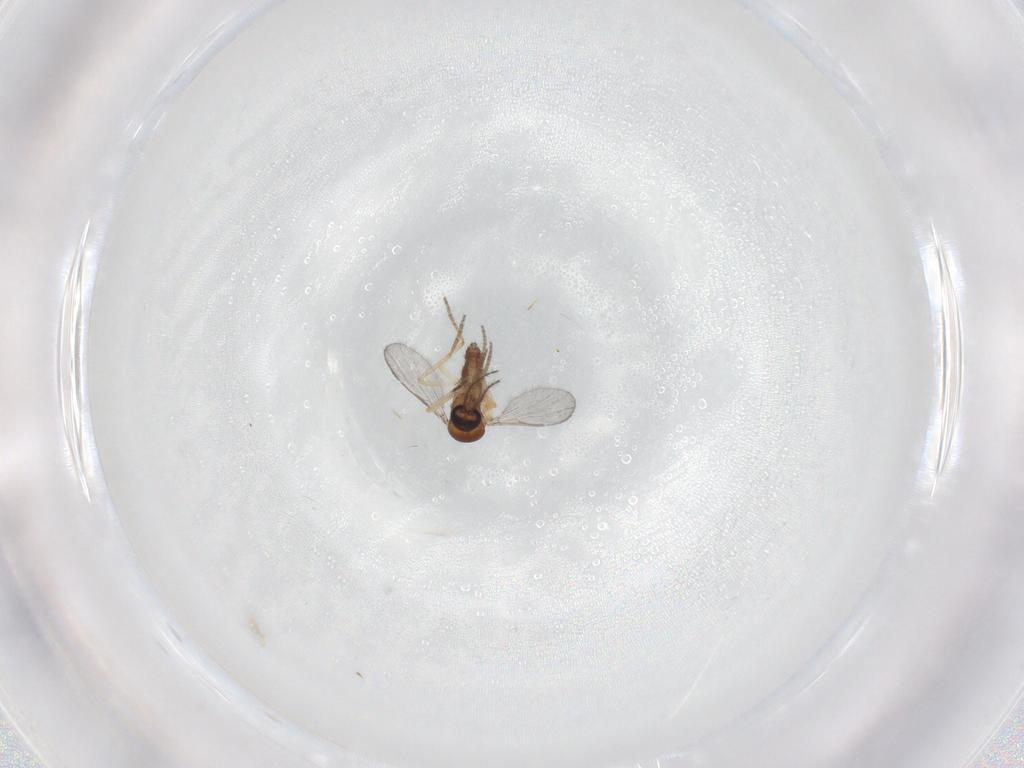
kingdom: Animalia
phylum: Arthropoda
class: Insecta
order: Diptera
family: Ceratopogonidae
